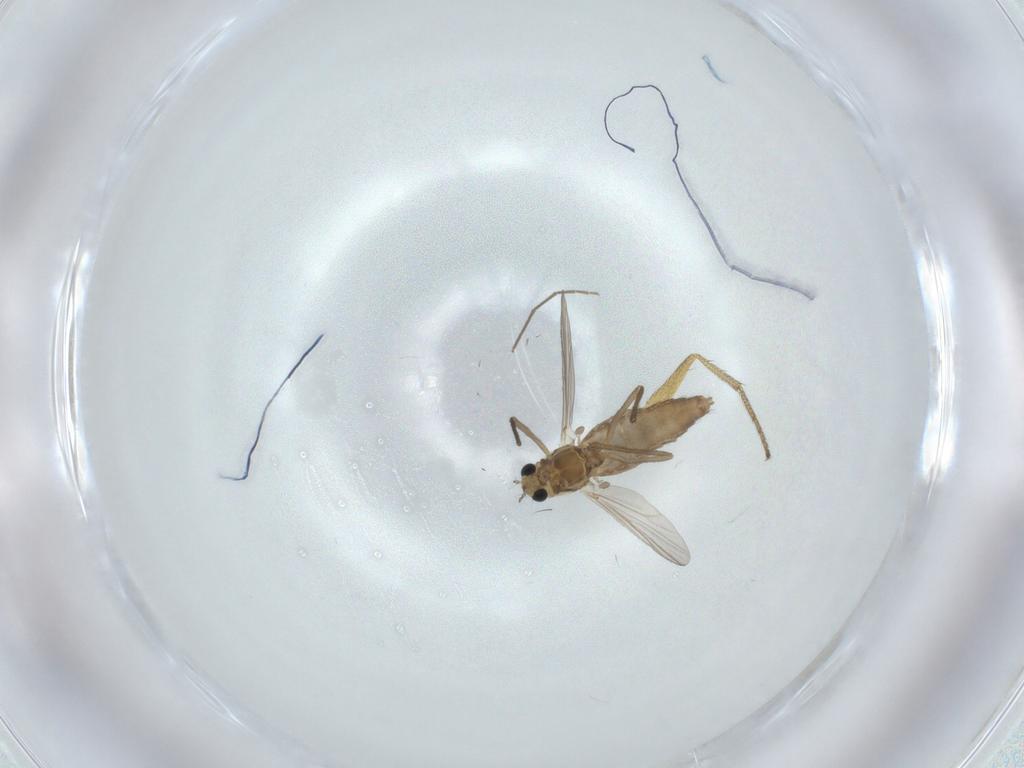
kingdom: Animalia
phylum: Arthropoda
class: Insecta
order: Diptera
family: Chironomidae
